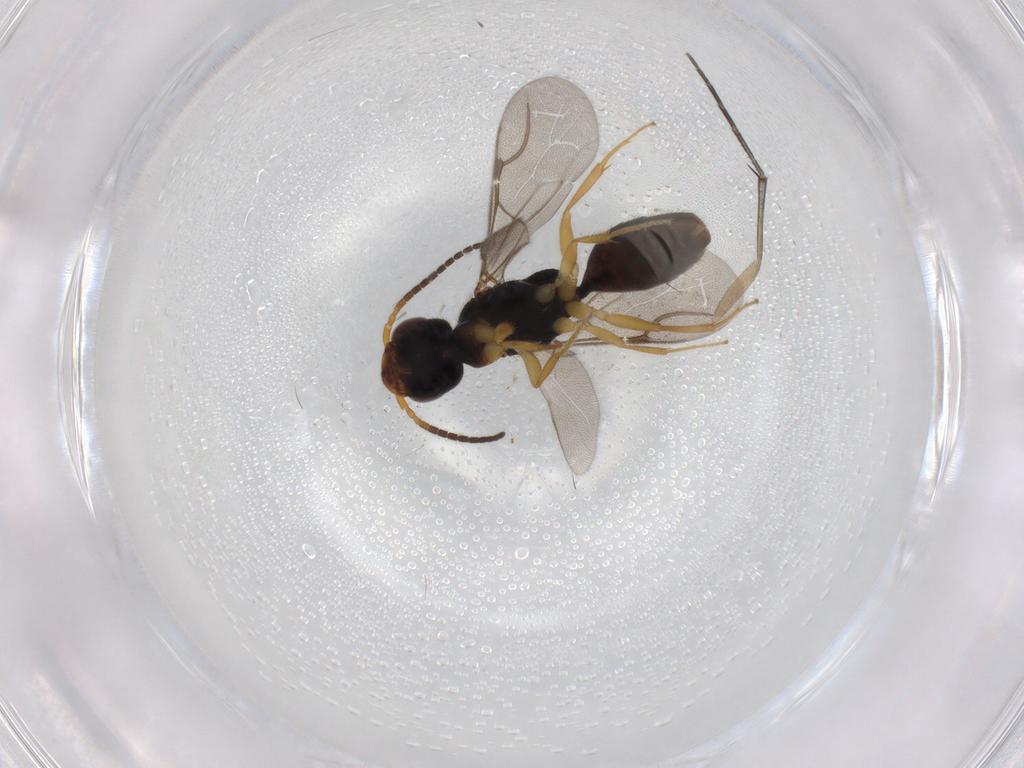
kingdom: Animalia
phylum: Arthropoda
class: Insecta
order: Hymenoptera
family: Bethylidae
